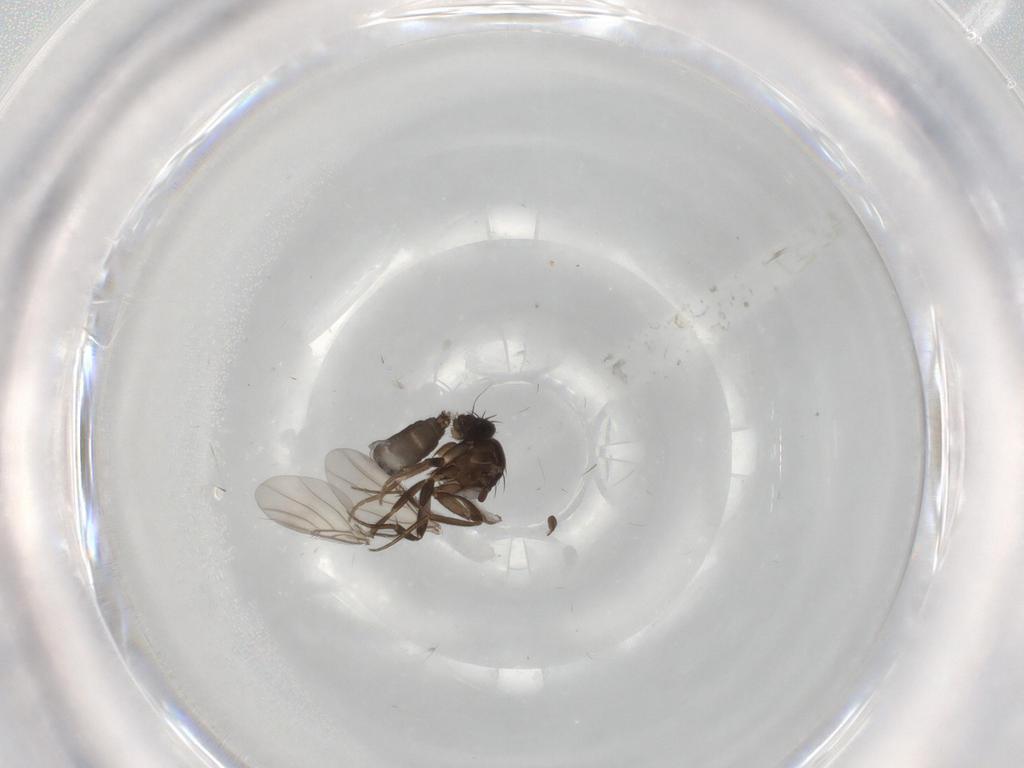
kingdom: Animalia
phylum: Arthropoda
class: Insecta
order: Diptera
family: Phoridae
